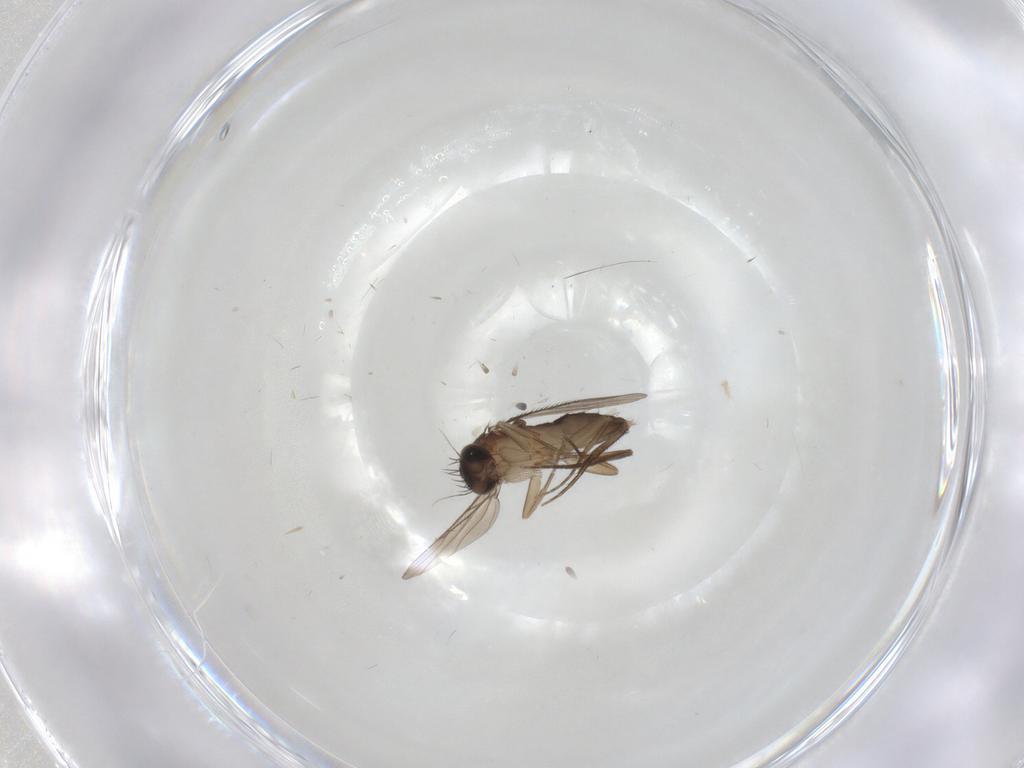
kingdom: Animalia
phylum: Arthropoda
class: Insecta
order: Diptera
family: Phoridae
